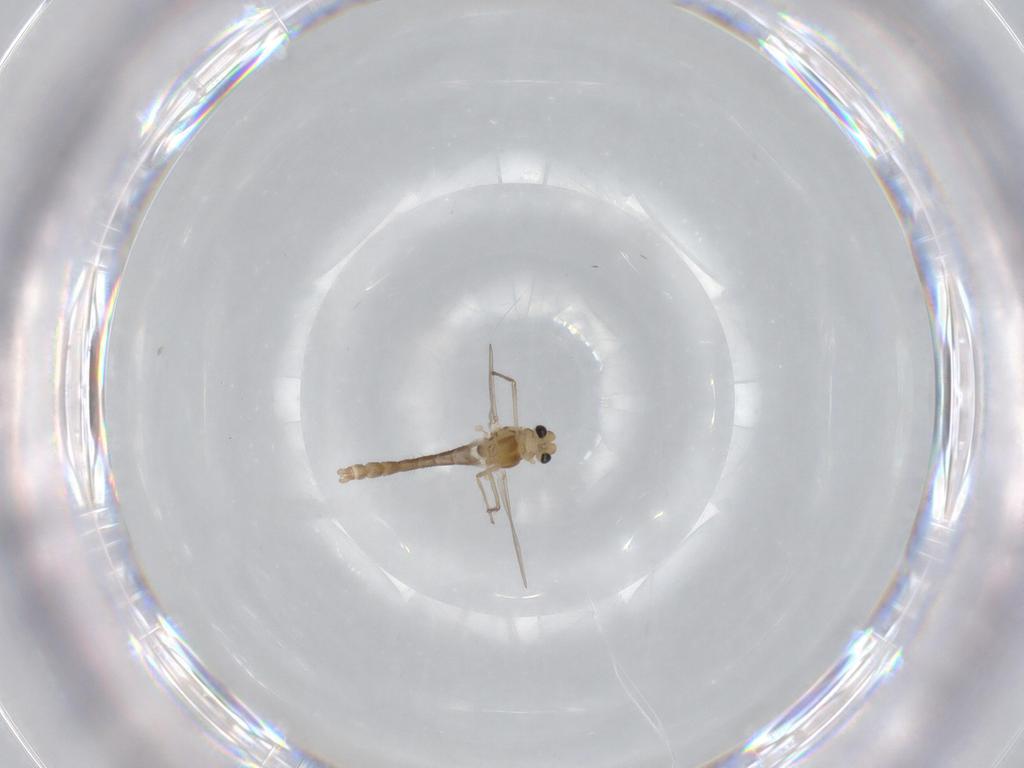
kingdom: Animalia
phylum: Arthropoda
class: Insecta
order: Diptera
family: Chironomidae
